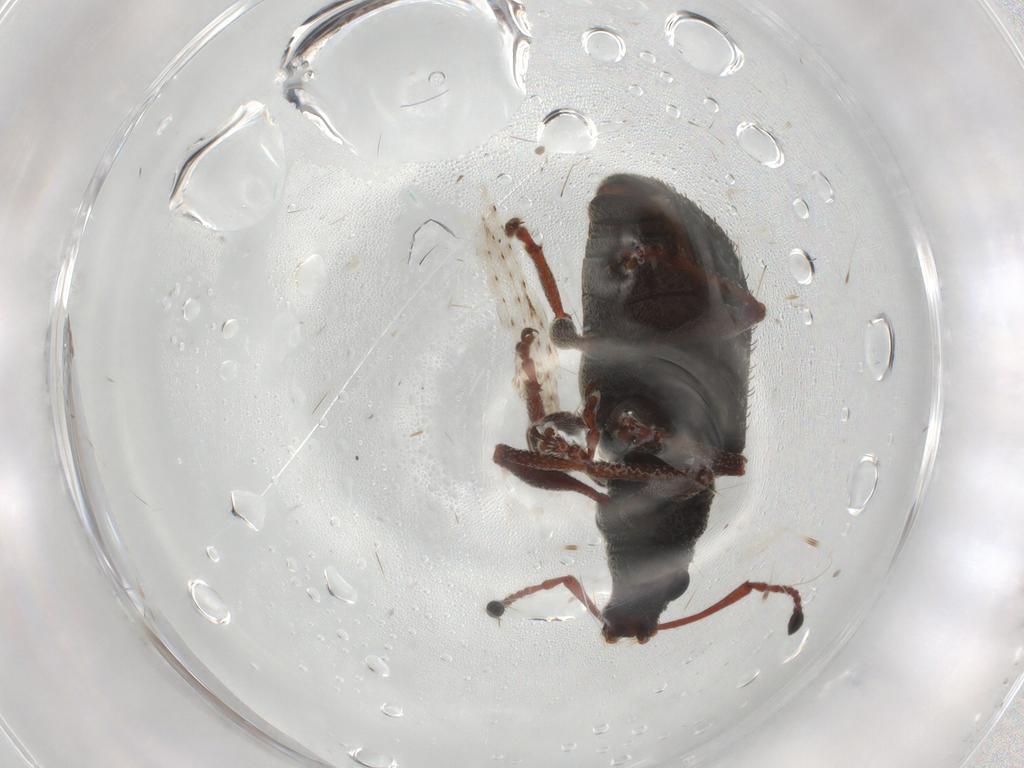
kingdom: Animalia
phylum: Arthropoda
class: Insecta
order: Coleoptera
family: Curculionidae
